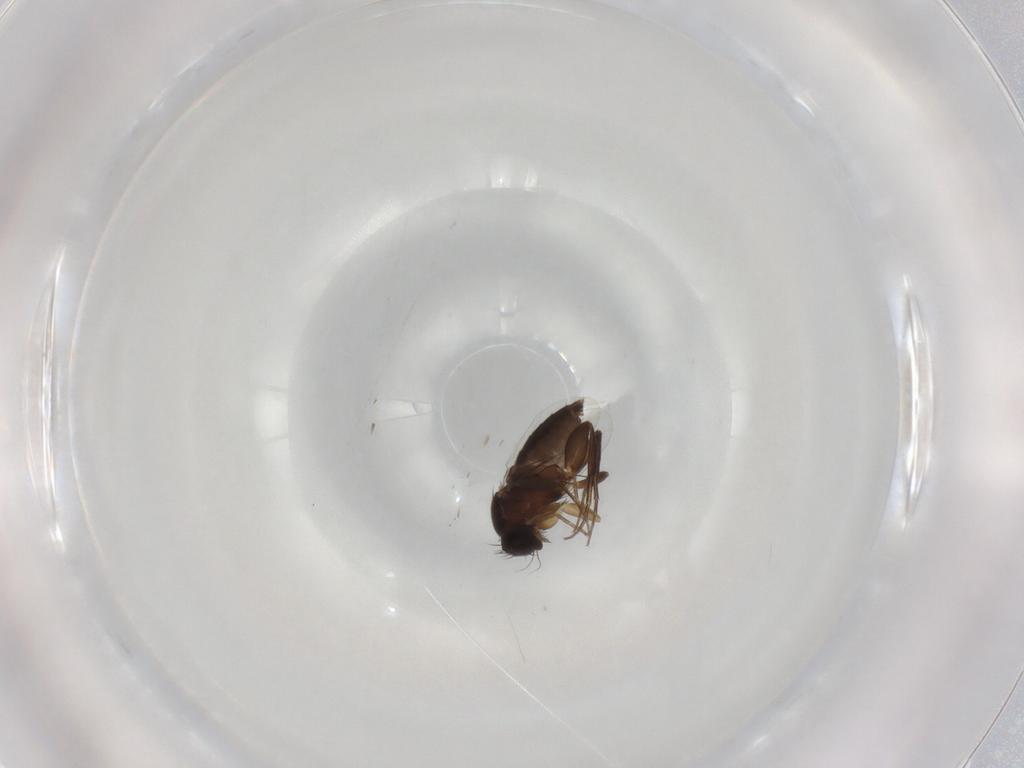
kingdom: Animalia
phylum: Arthropoda
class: Insecta
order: Diptera
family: Phoridae
